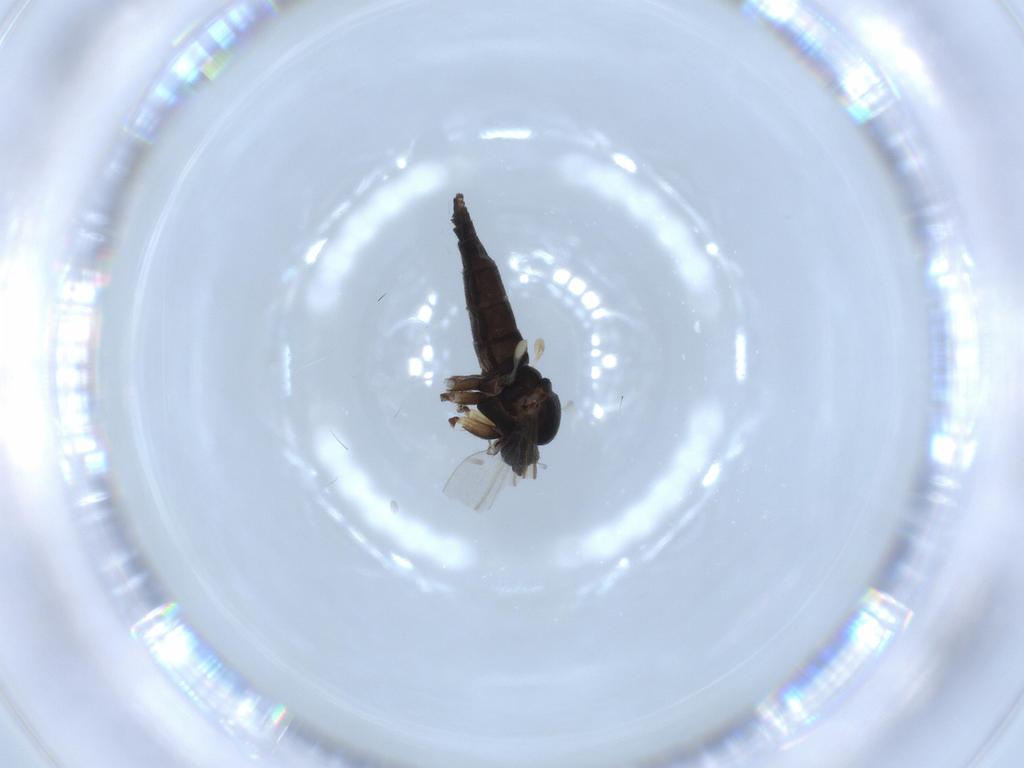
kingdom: Animalia
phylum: Arthropoda
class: Insecta
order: Diptera
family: Sciaridae
